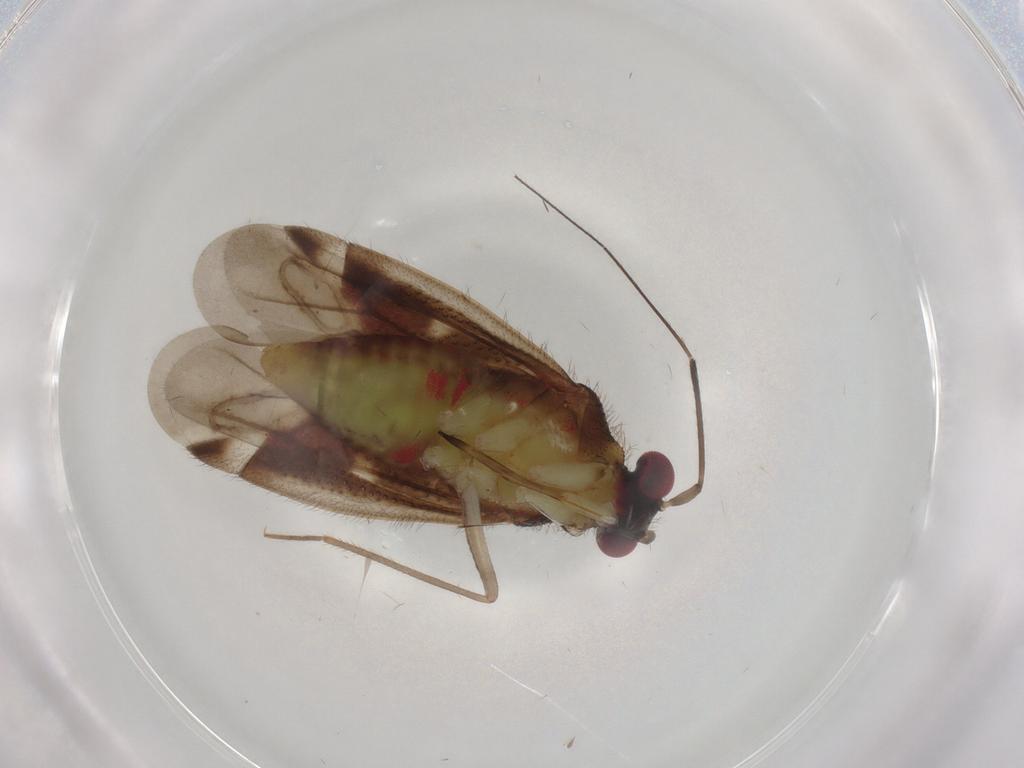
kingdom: Animalia
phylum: Arthropoda
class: Insecta
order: Hemiptera
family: Miridae
